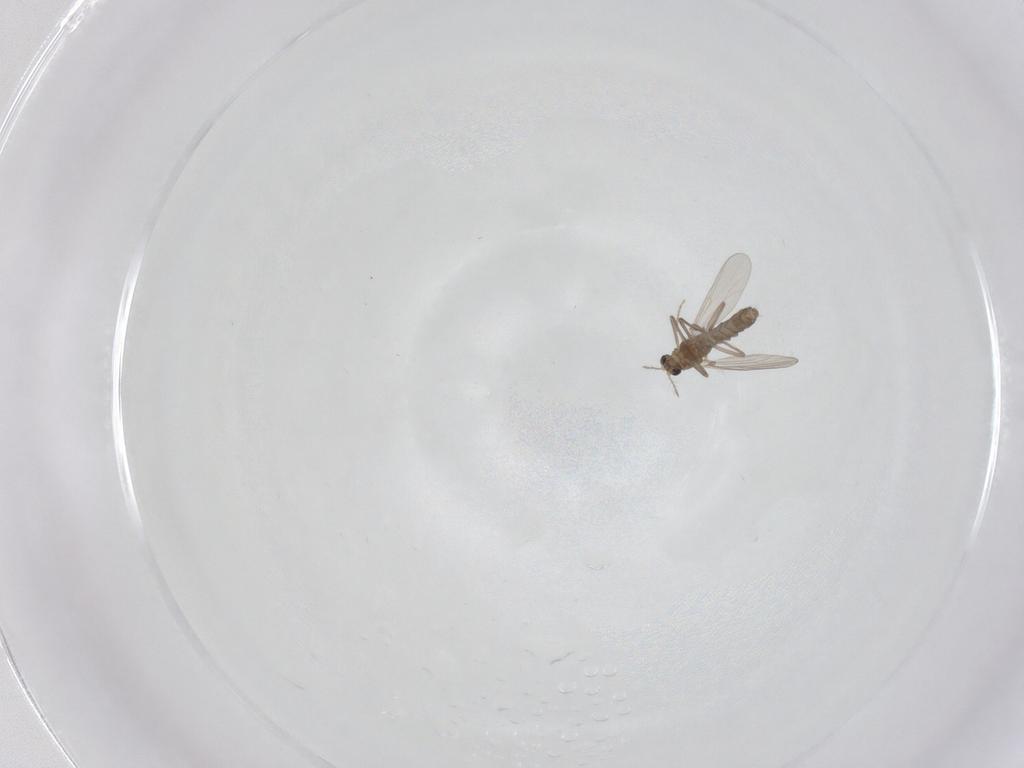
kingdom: Animalia
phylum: Arthropoda
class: Insecta
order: Diptera
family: Chironomidae
